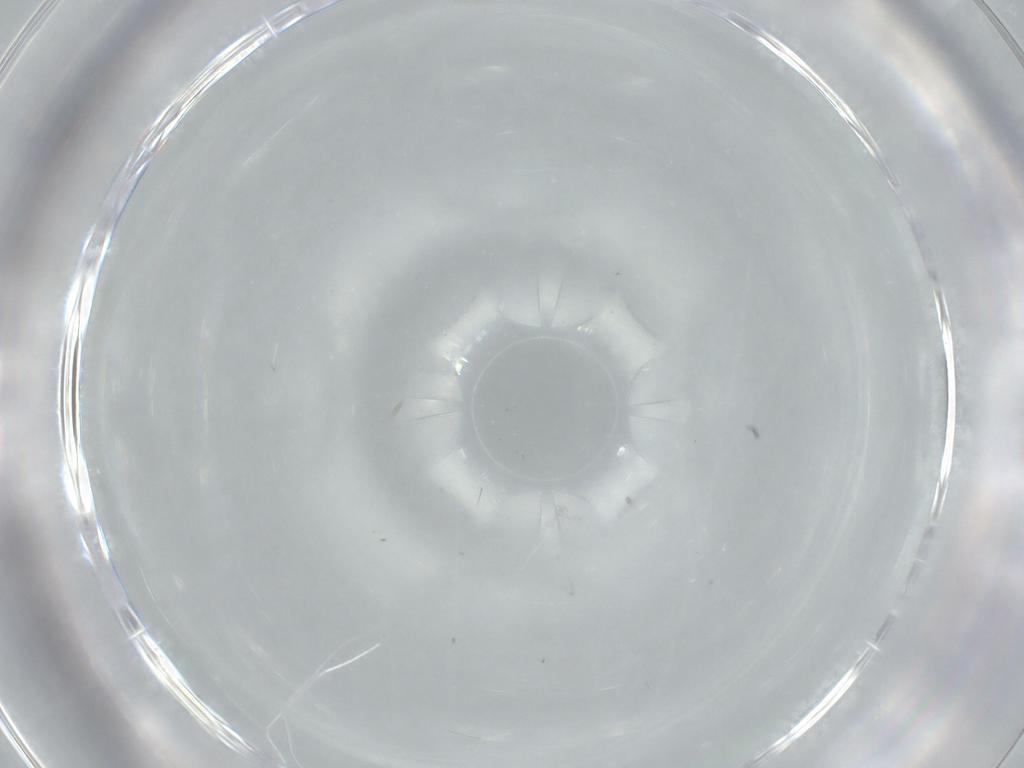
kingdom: Animalia
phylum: Arthropoda
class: Insecta
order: Diptera
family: Cecidomyiidae
